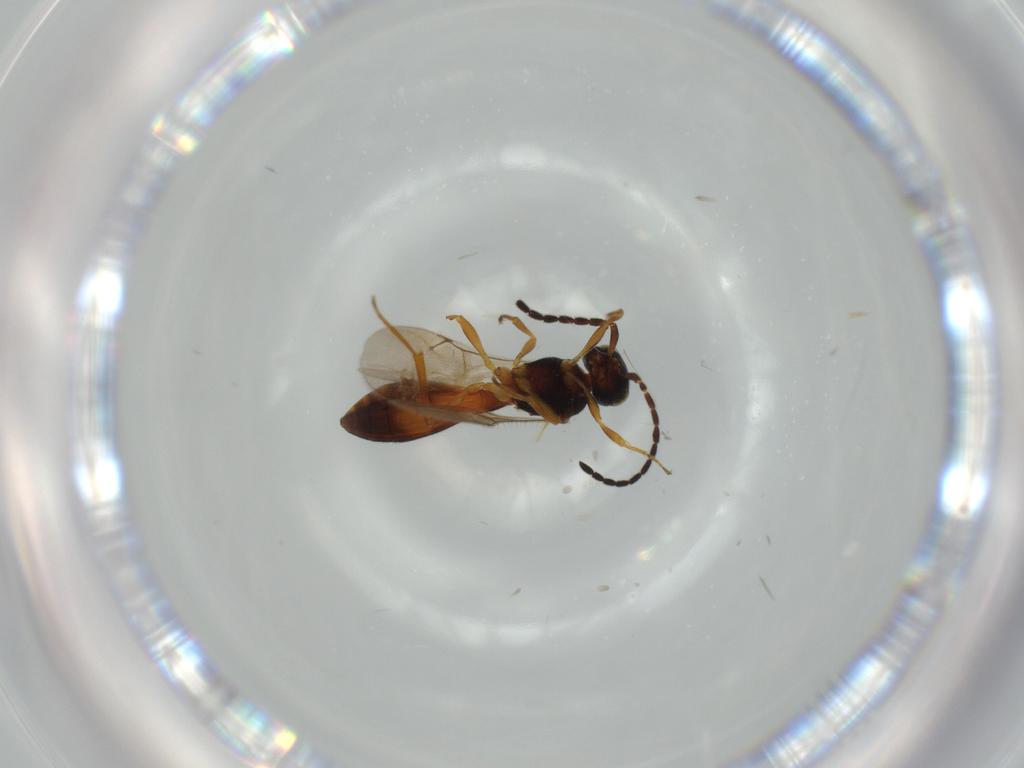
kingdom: Animalia
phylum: Arthropoda
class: Insecta
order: Hymenoptera
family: Scelionidae
